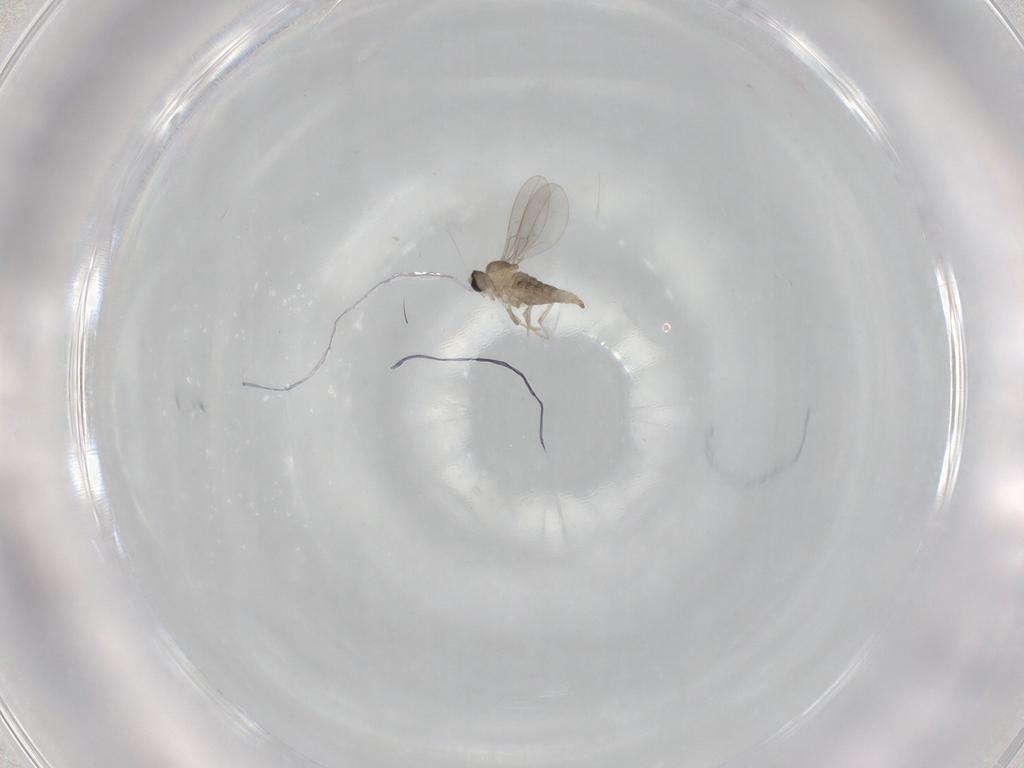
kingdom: Animalia
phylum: Arthropoda
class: Insecta
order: Diptera
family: Cecidomyiidae
